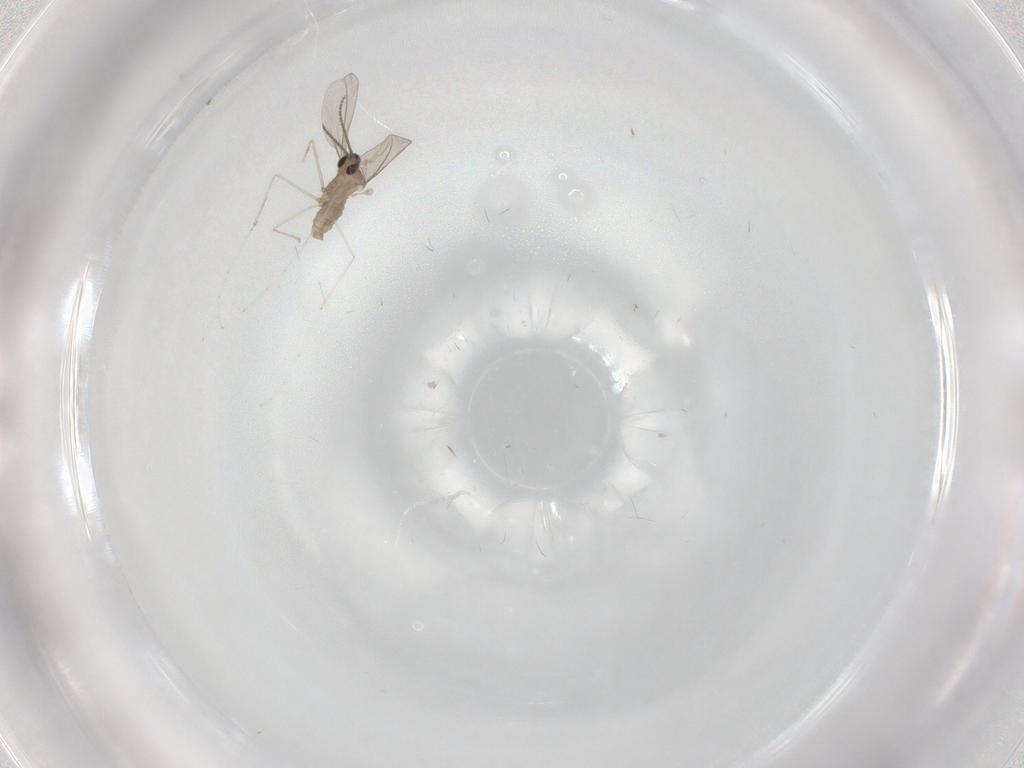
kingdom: Animalia
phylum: Arthropoda
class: Insecta
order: Diptera
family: Cecidomyiidae
